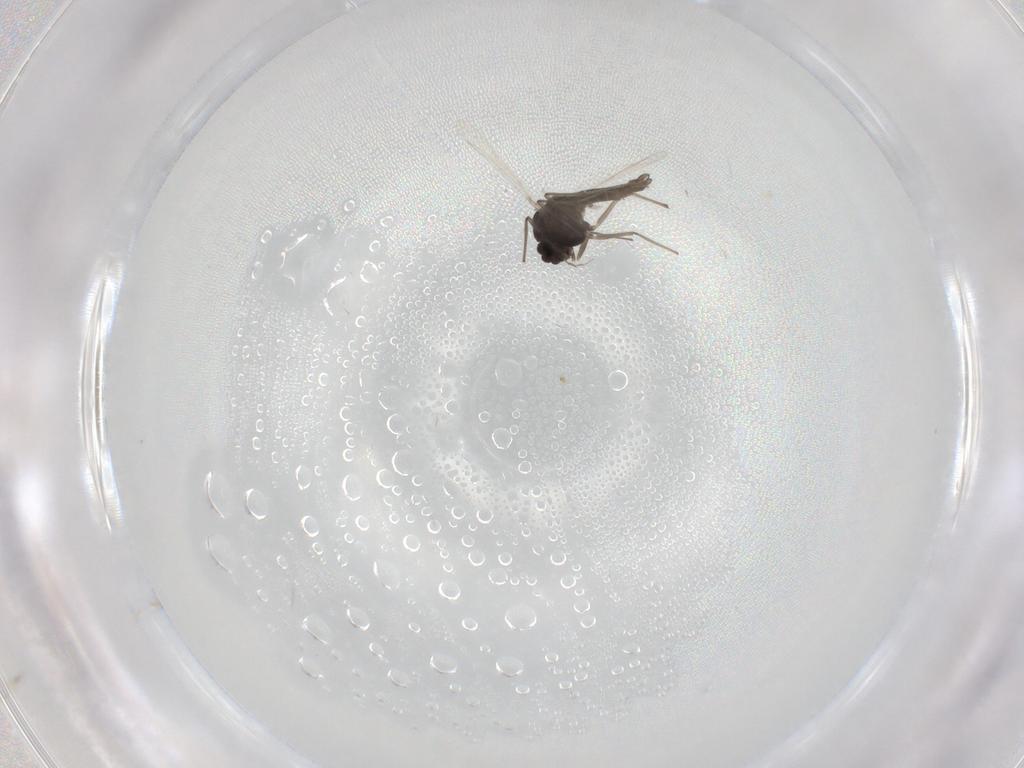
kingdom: Animalia
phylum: Arthropoda
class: Insecta
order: Diptera
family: Chironomidae
